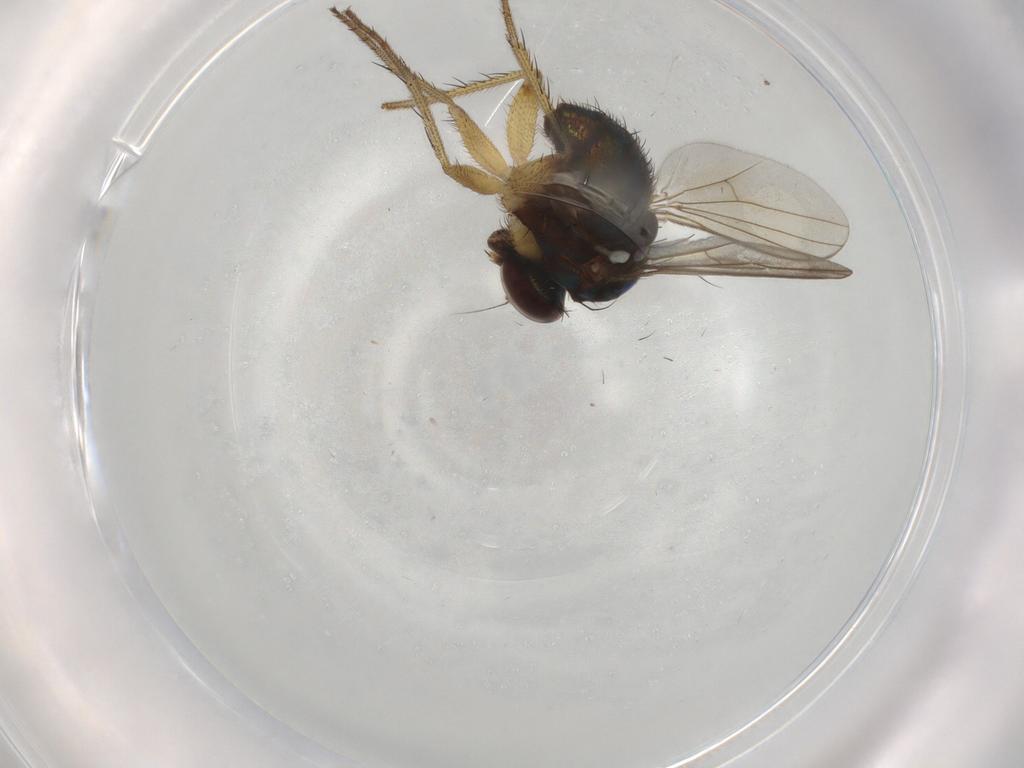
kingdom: Animalia
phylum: Arthropoda
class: Insecta
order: Diptera
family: Dolichopodidae
